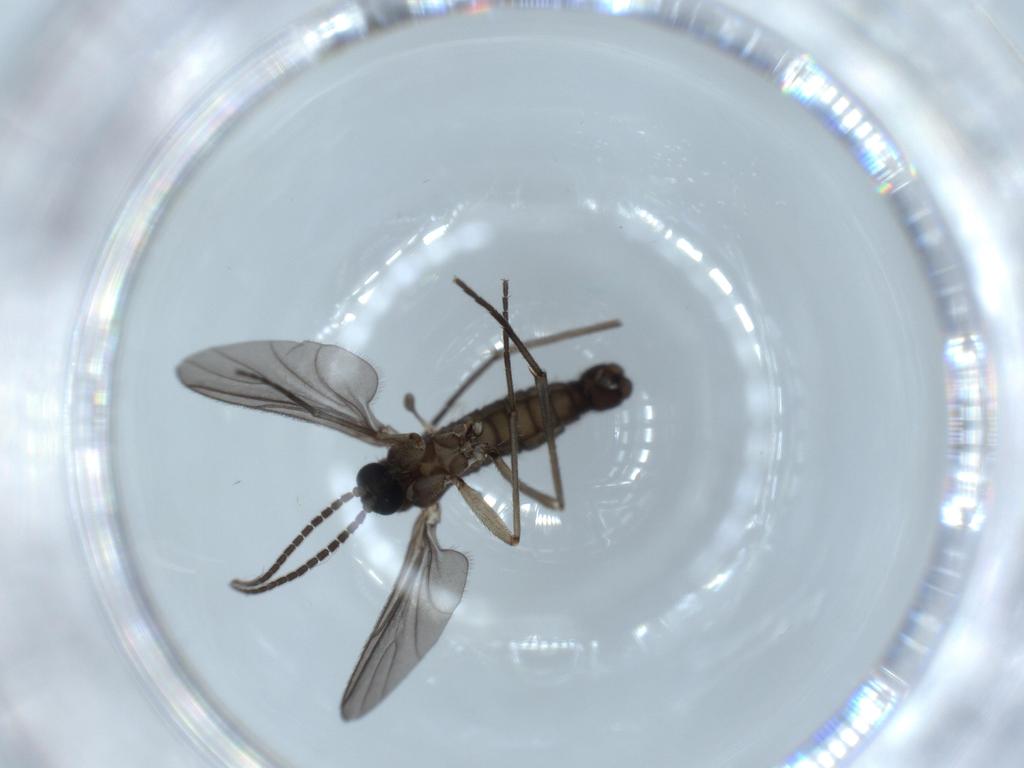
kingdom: Animalia
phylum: Arthropoda
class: Insecta
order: Diptera
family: Sciaridae
